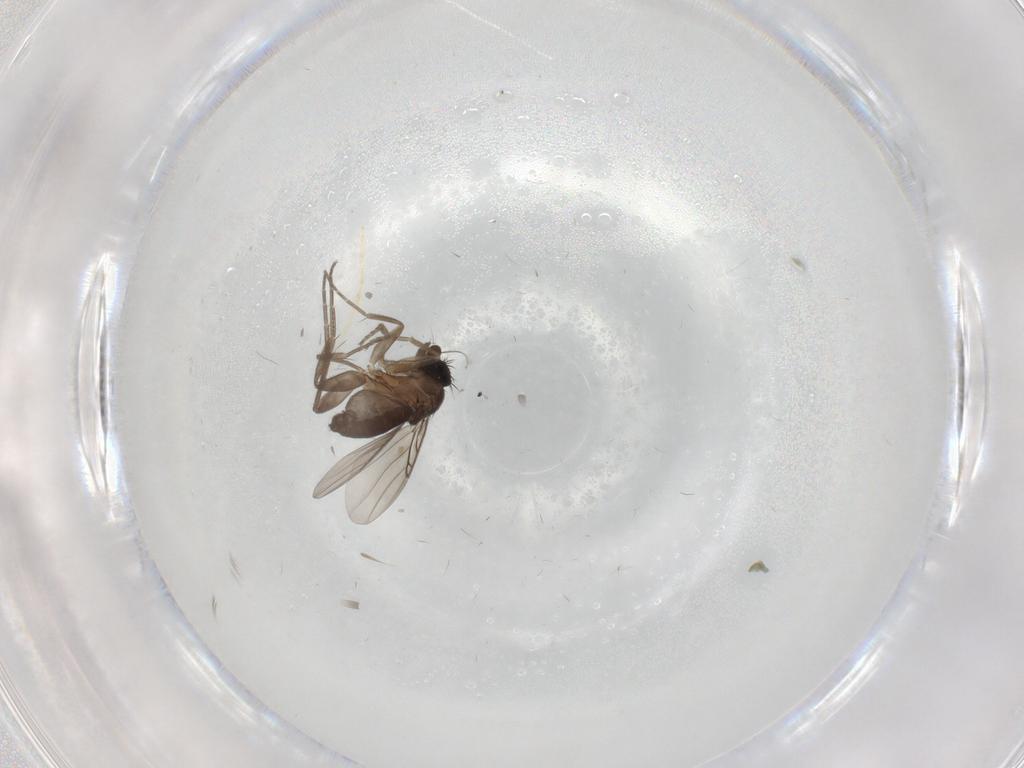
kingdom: Animalia
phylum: Arthropoda
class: Insecta
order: Diptera
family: Phoridae
